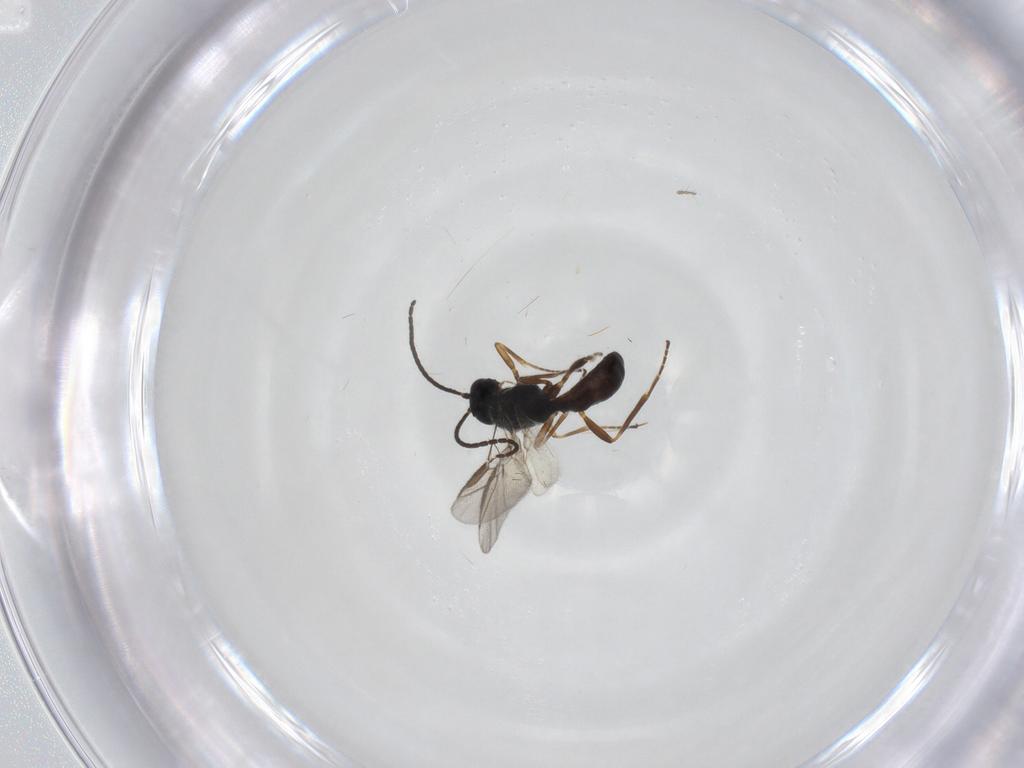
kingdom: Animalia
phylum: Arthropoda
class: Insecta
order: Hymenoptera
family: Braconidae
